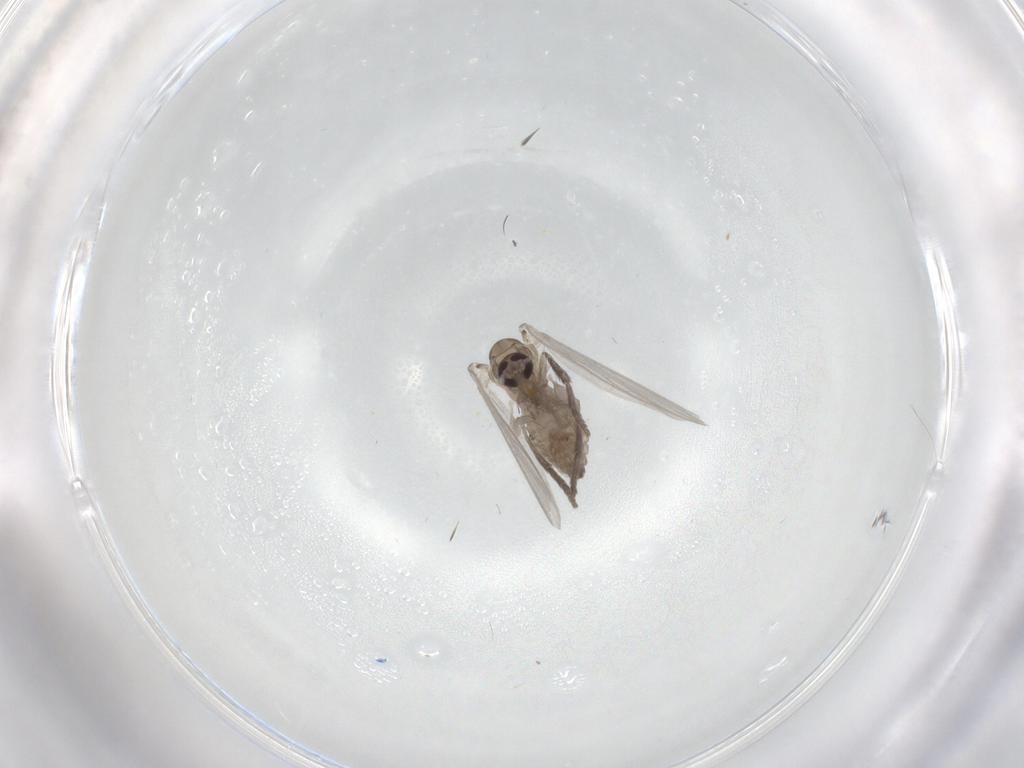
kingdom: Animalia
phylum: Arthropoda
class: Insecta
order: Diptera
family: Psychodidae
